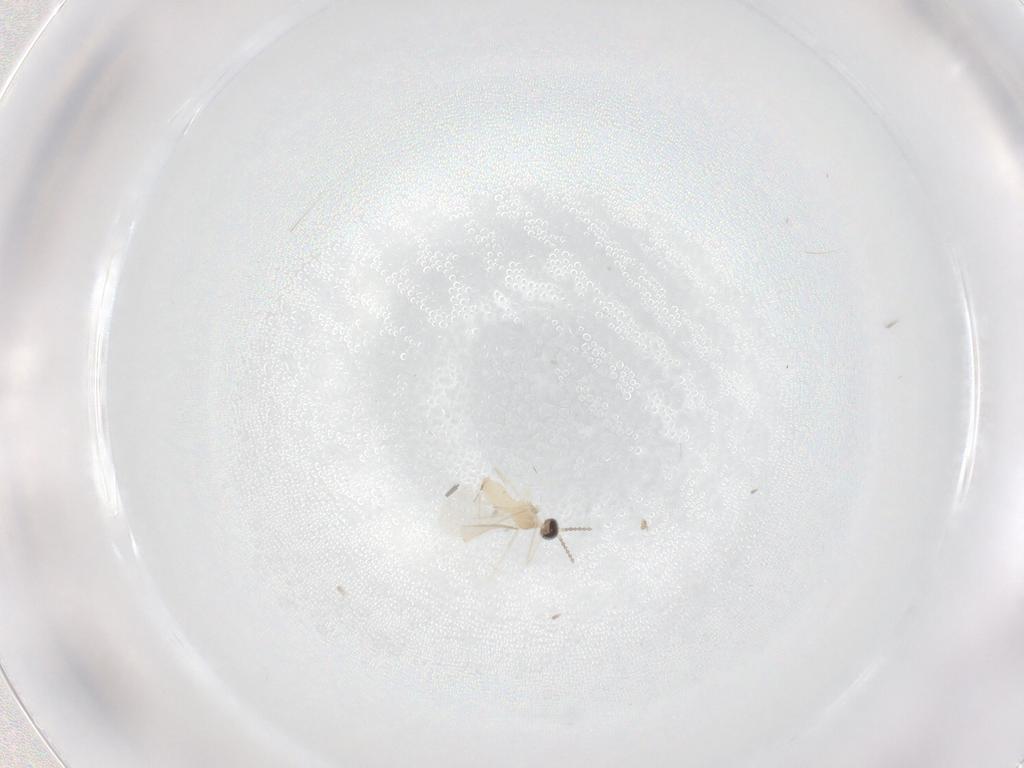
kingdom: Animalia
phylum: Arthropoda
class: Insecta
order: Diptera
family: Cecidomyiidae
